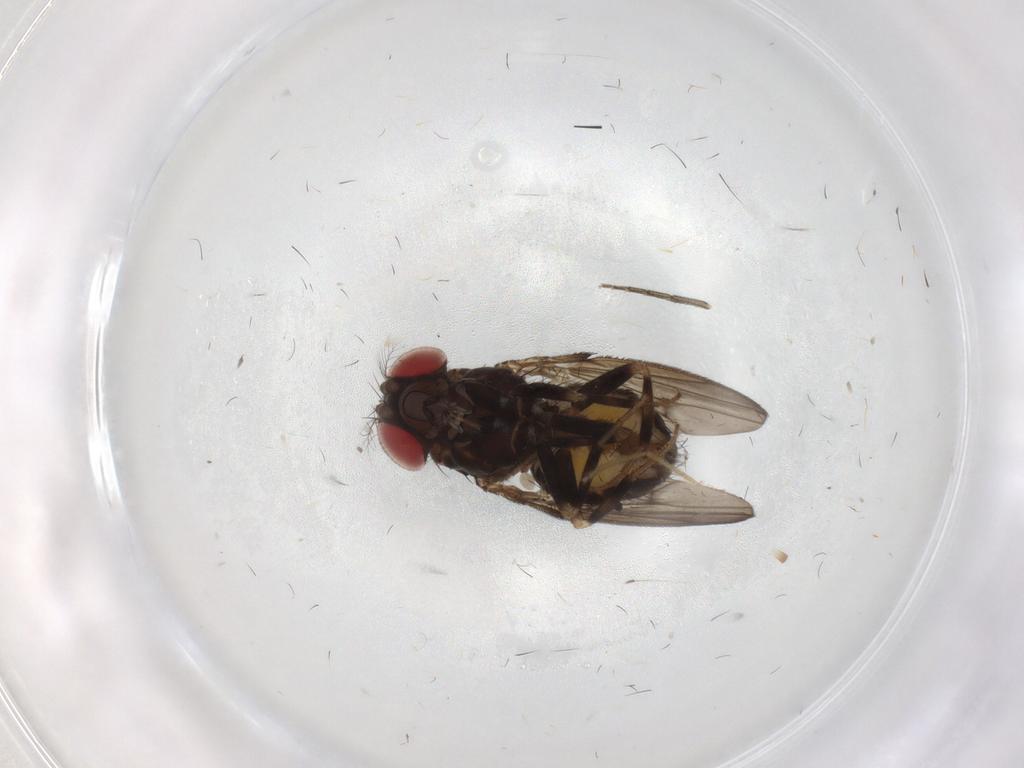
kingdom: Animalia
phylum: Arthropoda
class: Insecta
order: Diptera
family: Drosophilidae
